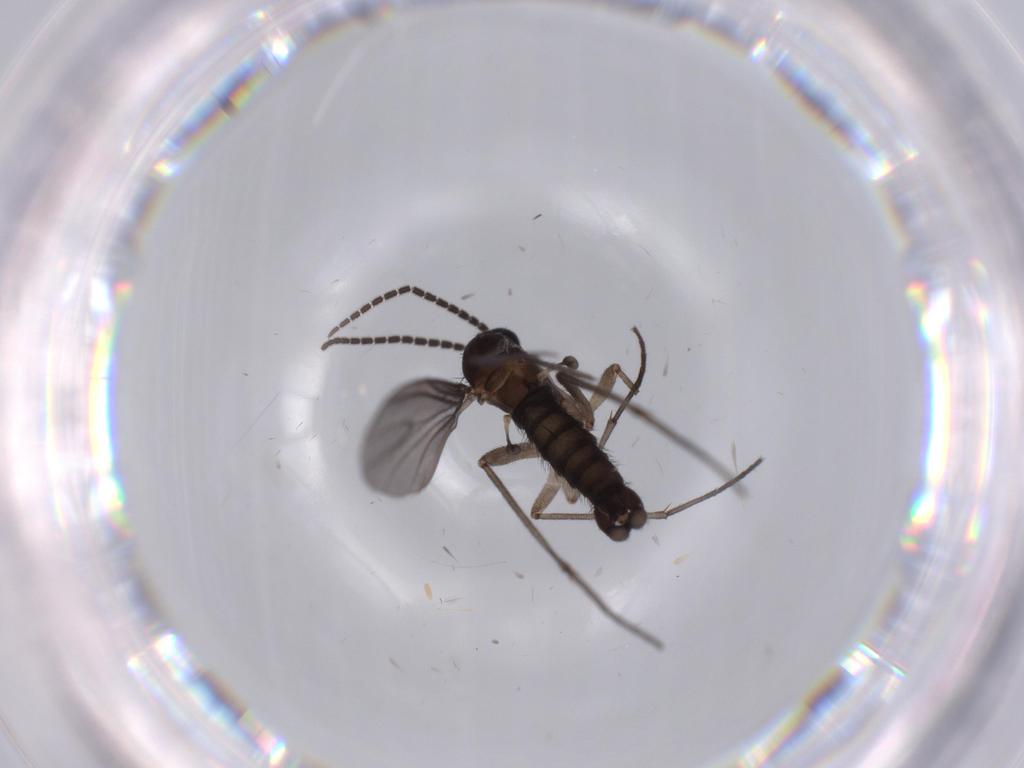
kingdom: Animalia
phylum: Arthropoda
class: Insecta
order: Diptera
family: Sciaridae
